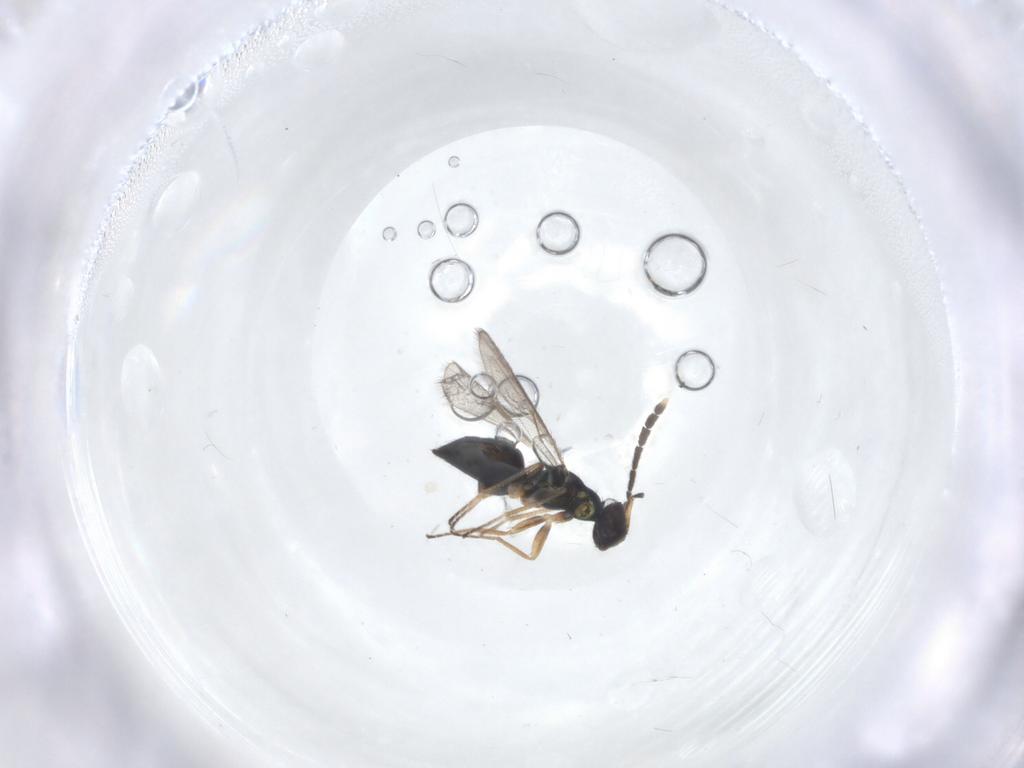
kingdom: Animalia
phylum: Arthropoda
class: Insecta
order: Hymenoptera
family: Eulophidae
